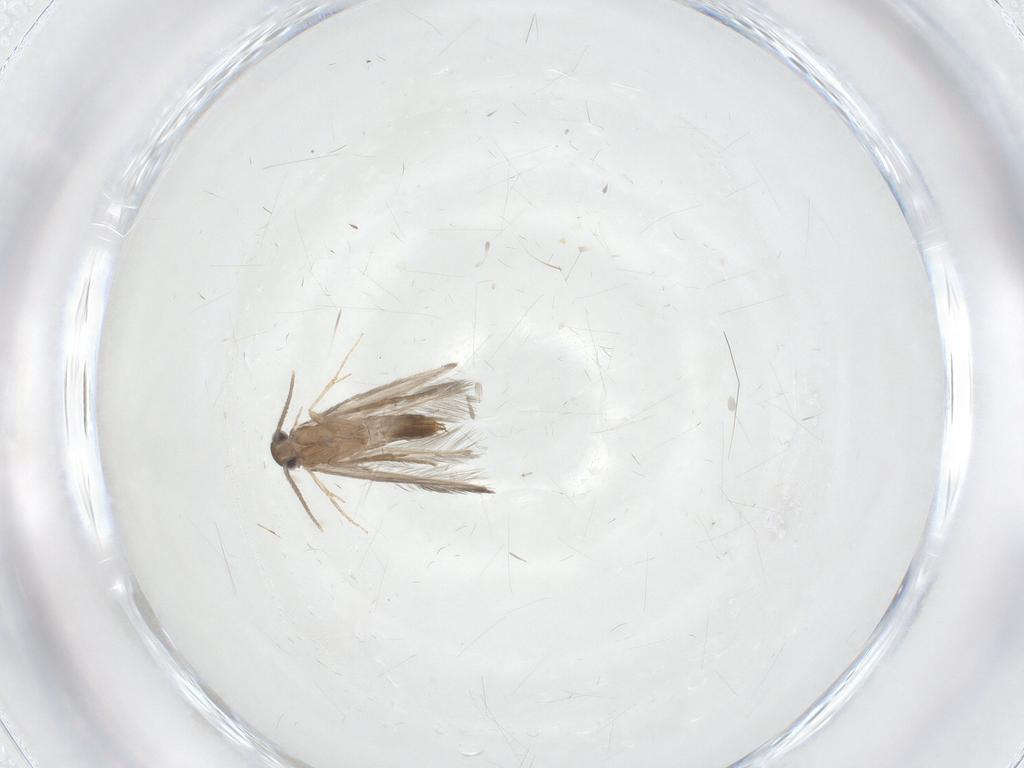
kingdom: Animalia
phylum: Arthropoda
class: Insecta
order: Trichoptera
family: Hydroptilidae
